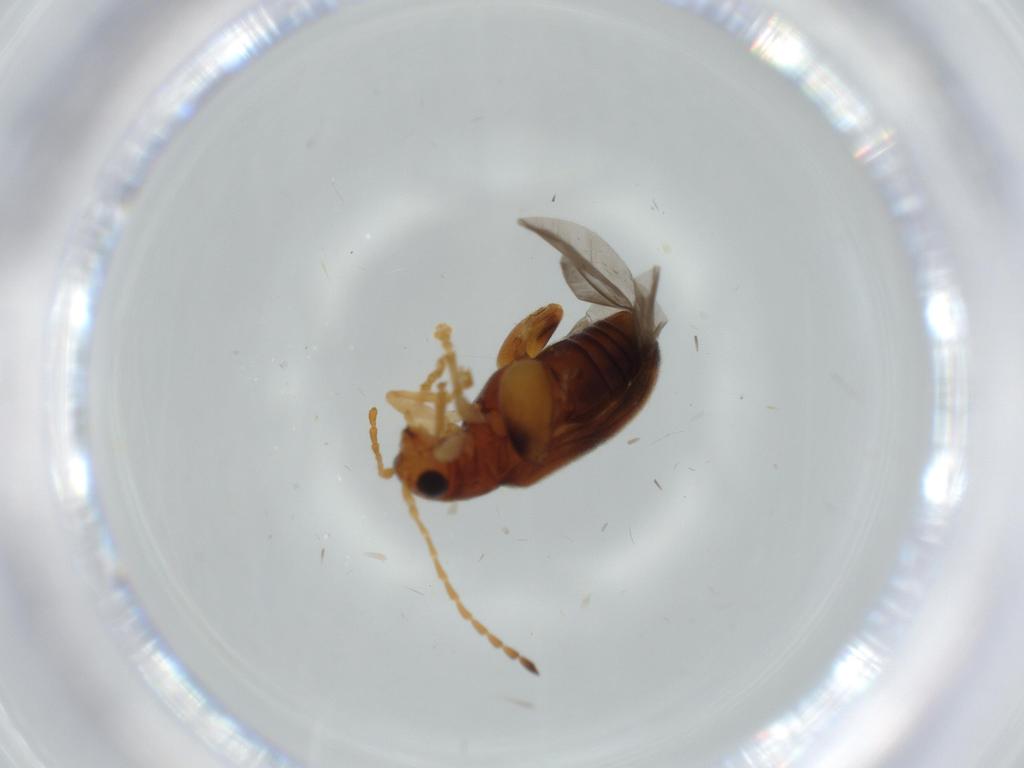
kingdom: Animalia
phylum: Arthropoda
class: Insecta
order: Coleoptera
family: Chrysomelidae
